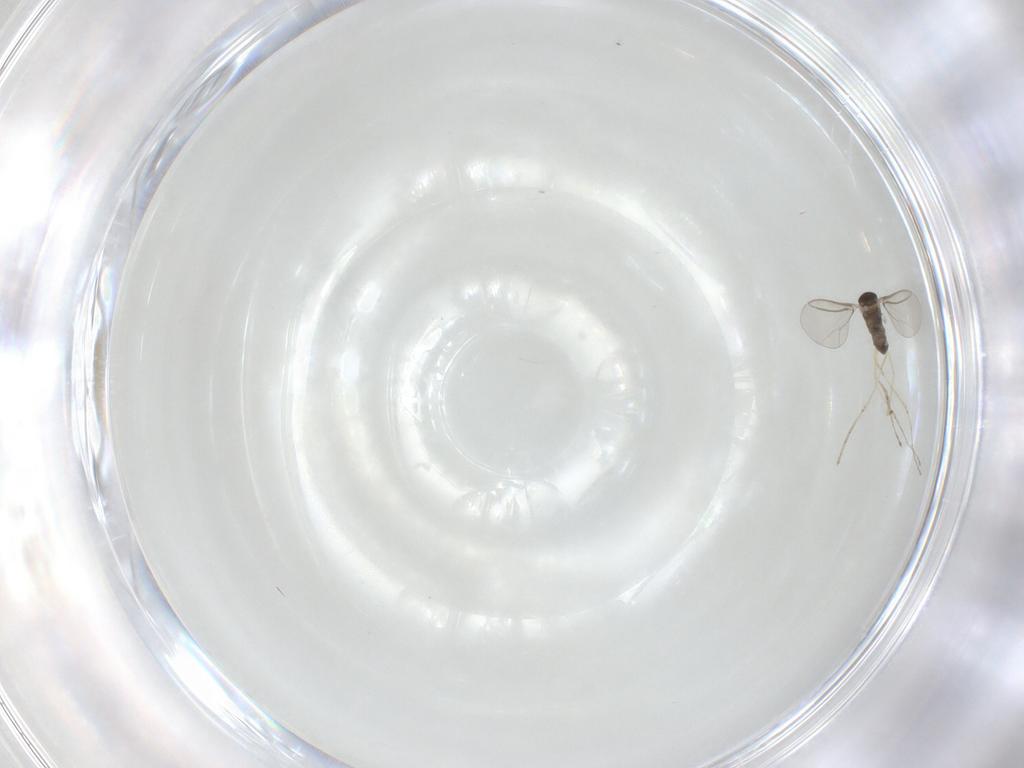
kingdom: Animalia
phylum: Arthropoda
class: Insecta
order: Diptera
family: Cecidomyiidae
